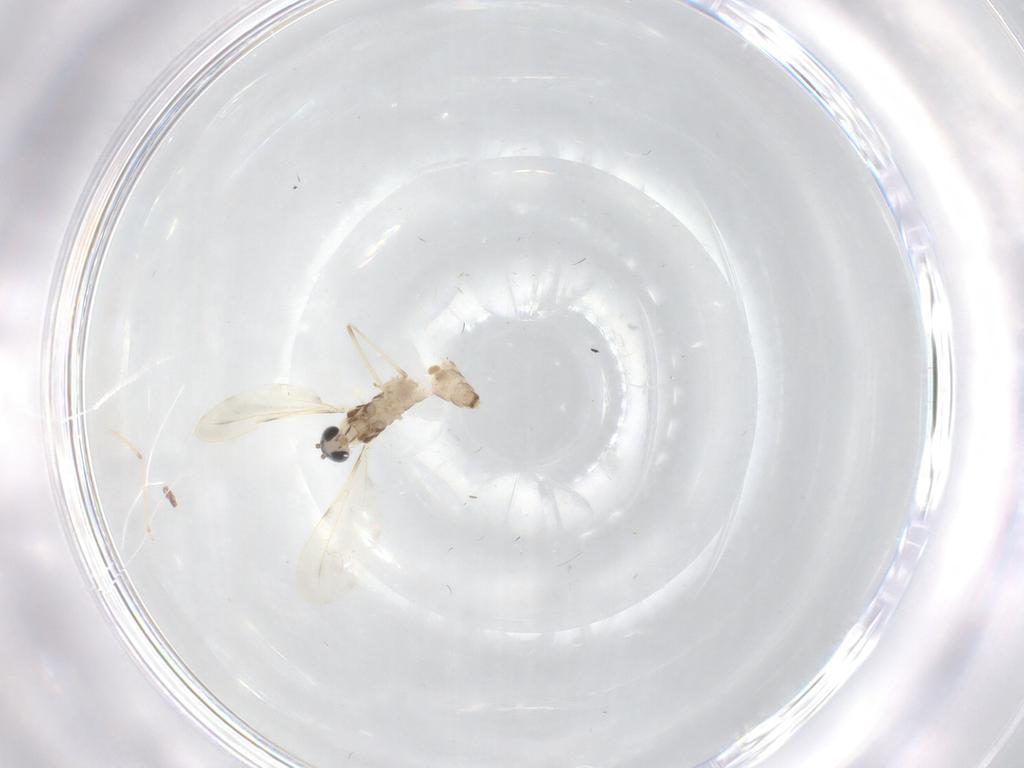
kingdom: Animalia
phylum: Arthropoda
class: Insecta
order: Diptera
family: Cecidomyiidae
